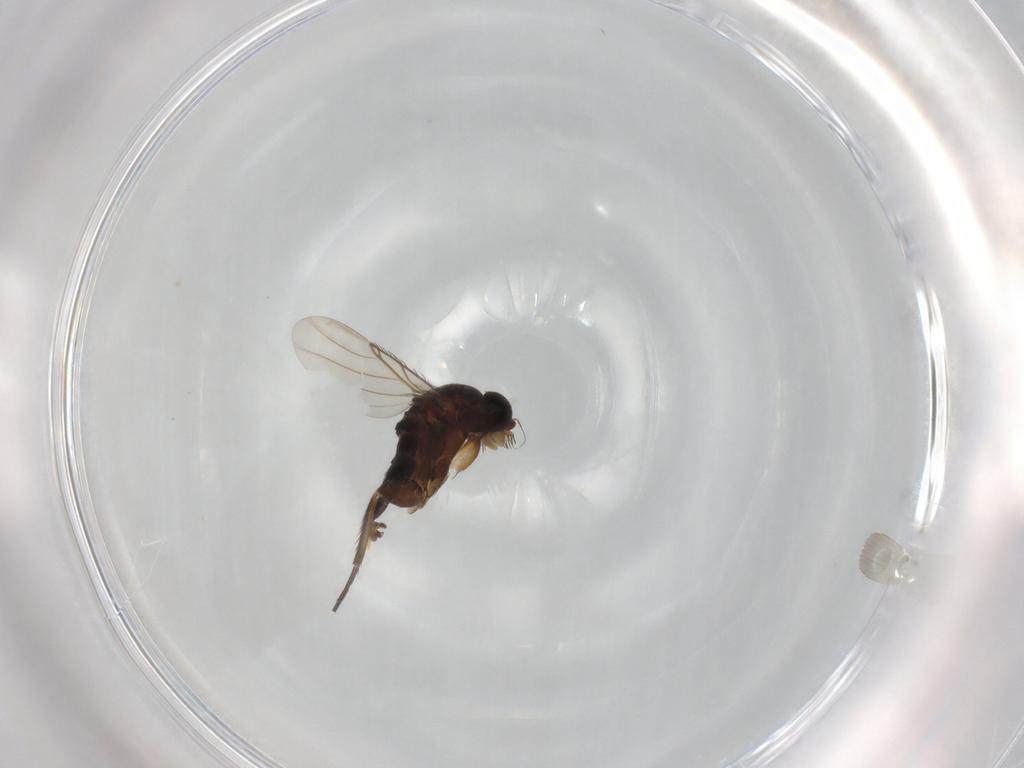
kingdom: Animalia
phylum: Arthropoda
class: Insecta
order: Diptera
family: Phoridae
